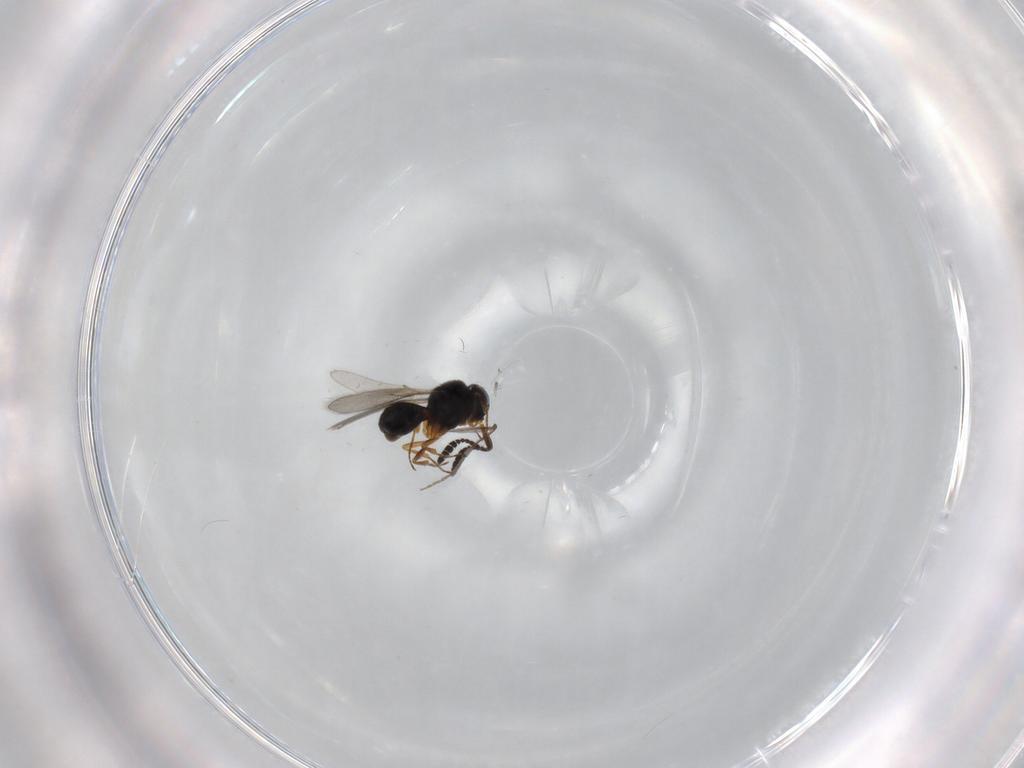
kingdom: Animalia
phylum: Arthropoda
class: Insecta
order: Hymenoptera
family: Scelionidae
